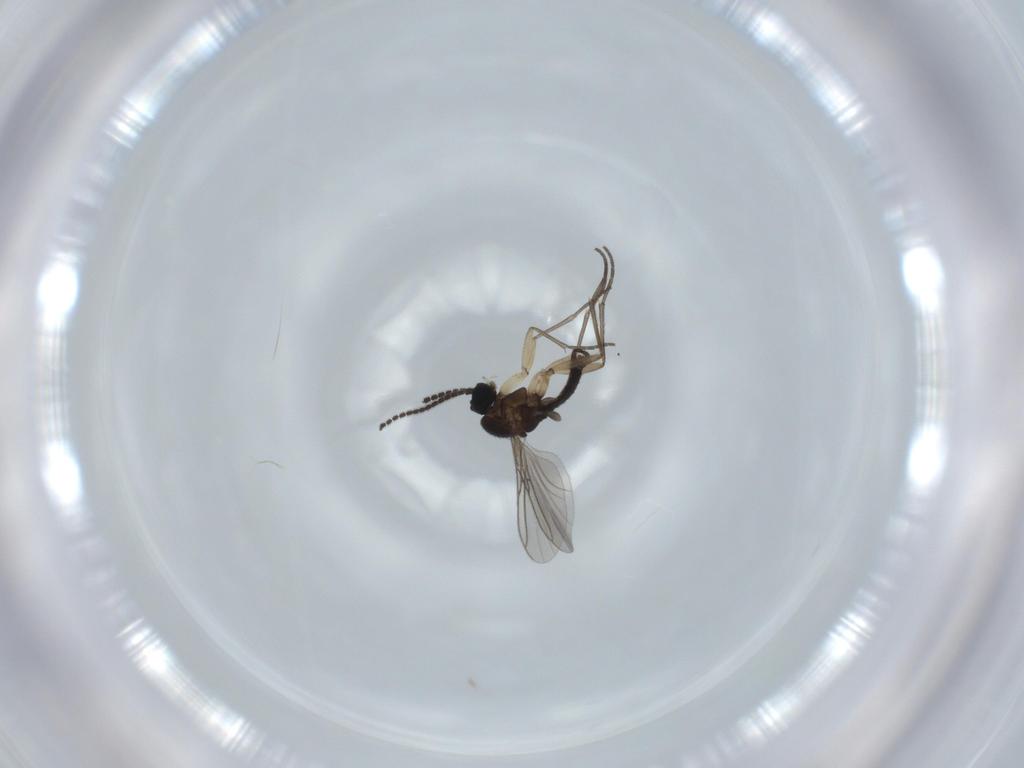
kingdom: Animalia
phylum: Arthropoda
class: Insecta
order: Diptera
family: Sciaridae
